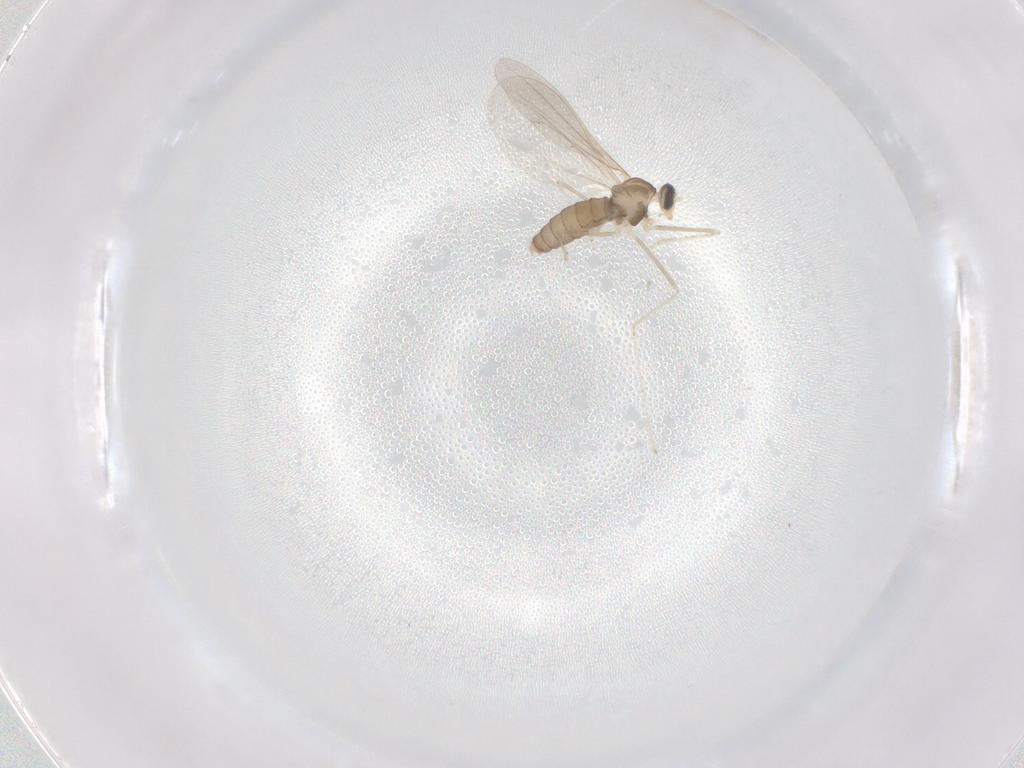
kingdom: Animalia
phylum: Arthropoda
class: Insecta
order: Diptera
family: Cecidomyiidae
